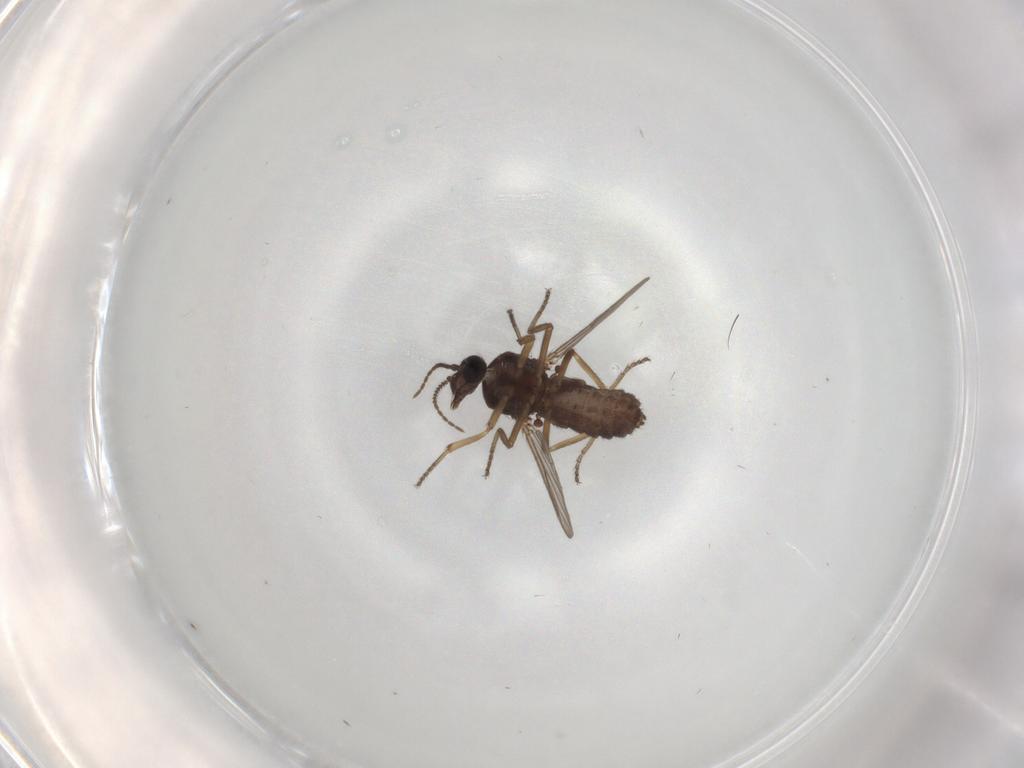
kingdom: Animalia
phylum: Arthropoda
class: Insecta
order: Diptera
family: Ceratopogonidae
